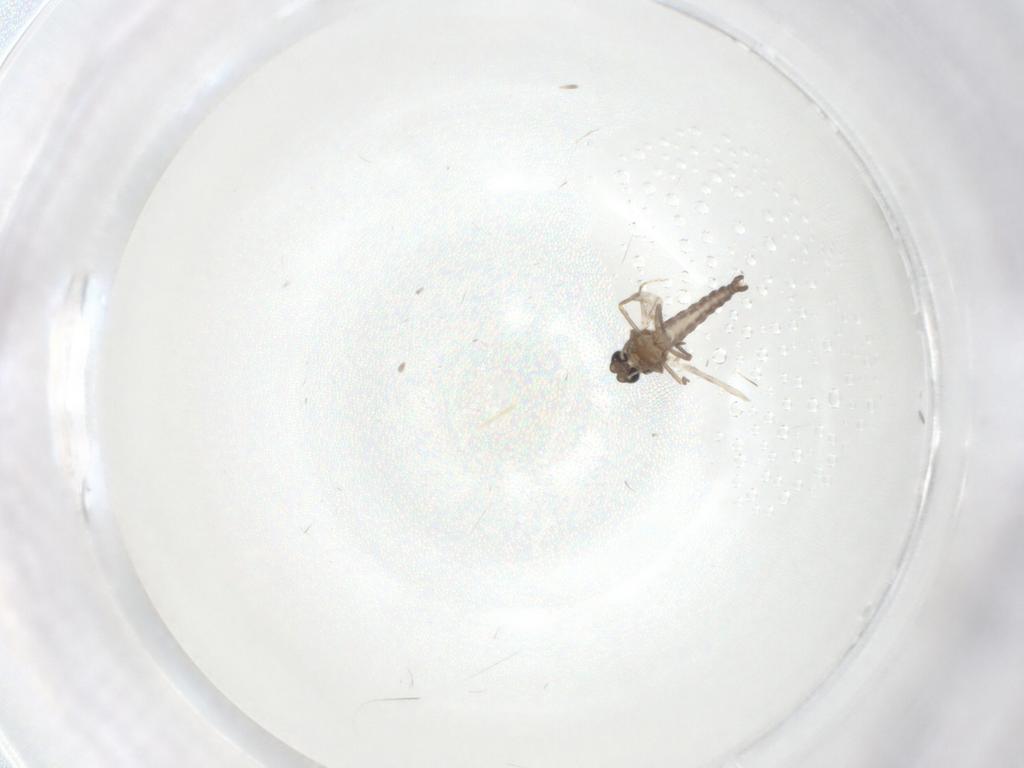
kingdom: Animalia
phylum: Arthropoda
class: Insecta
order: Diptera
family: Ceratopogonidae
